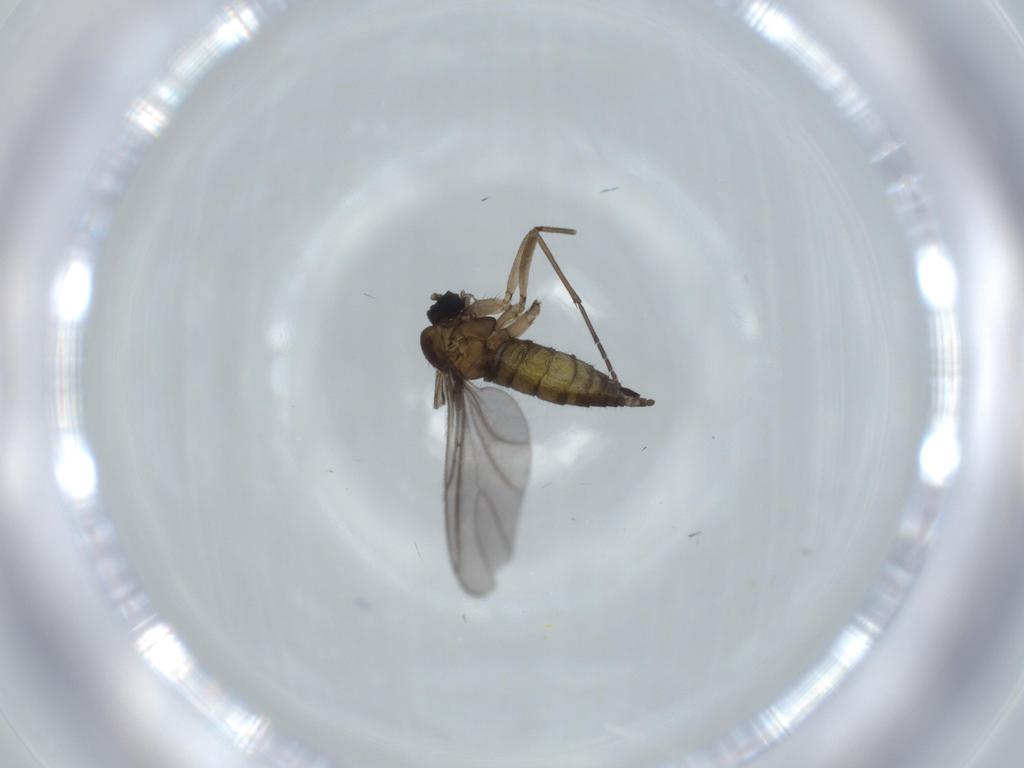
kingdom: Animalia
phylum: Arthropoda
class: Insecta
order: Diptera
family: Sciaridae
